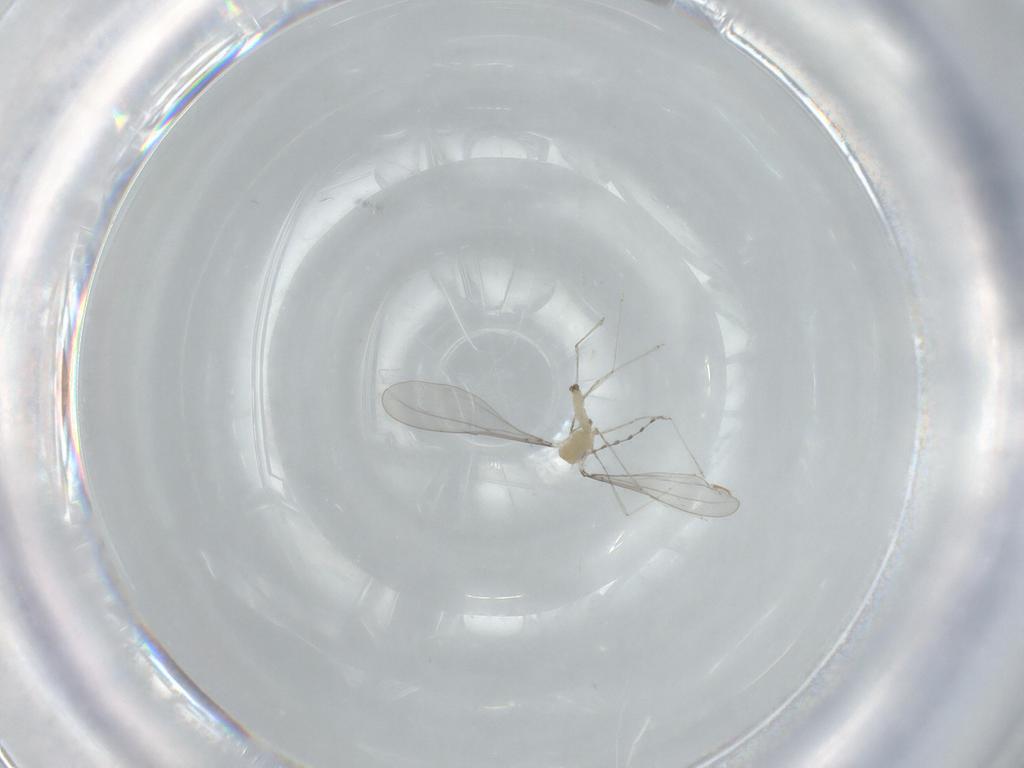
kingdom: Animalia
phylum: Arthropoda
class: Insecta
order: Diptera
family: Cecidomyiidae
